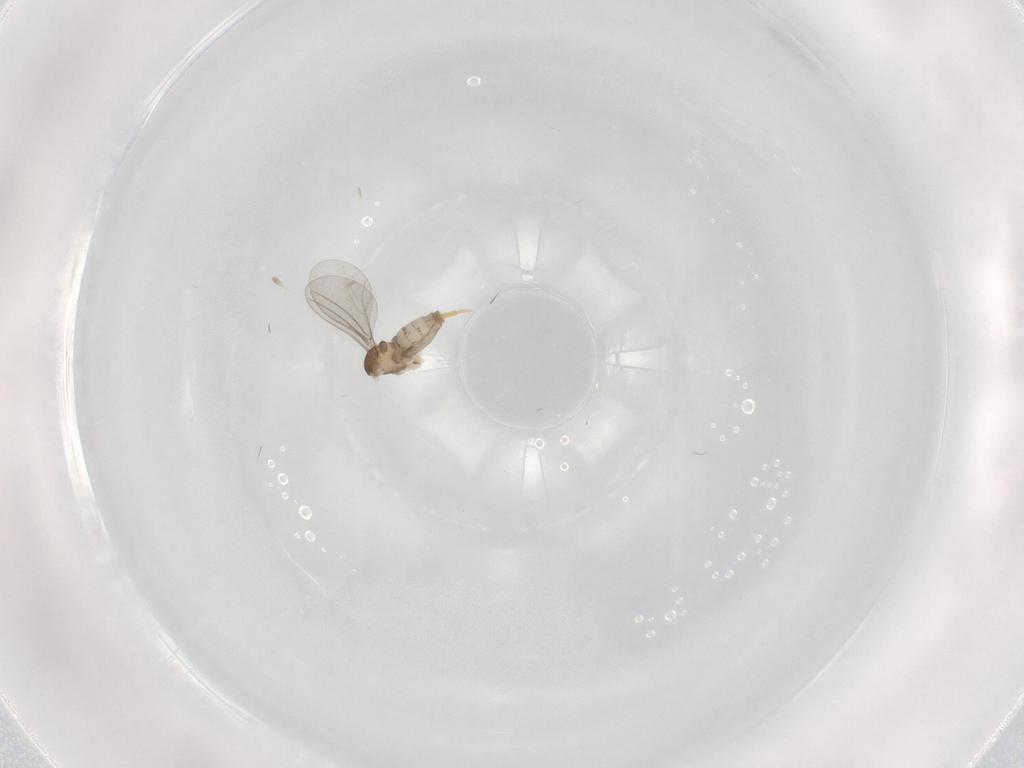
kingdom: Animalia
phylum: Arthropoda
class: Insecta
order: Diptera
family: Cecidomyiidae
